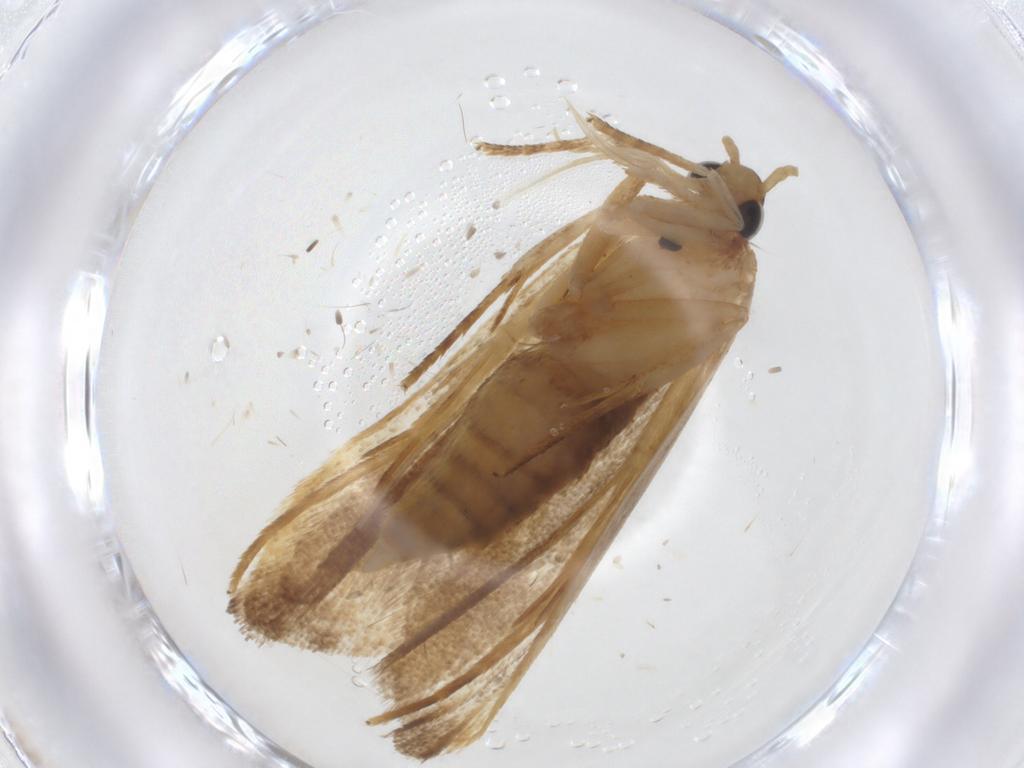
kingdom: Animalia
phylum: Arthropoda
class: Insecta
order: Lepidoptera
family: Lecithoceridae
